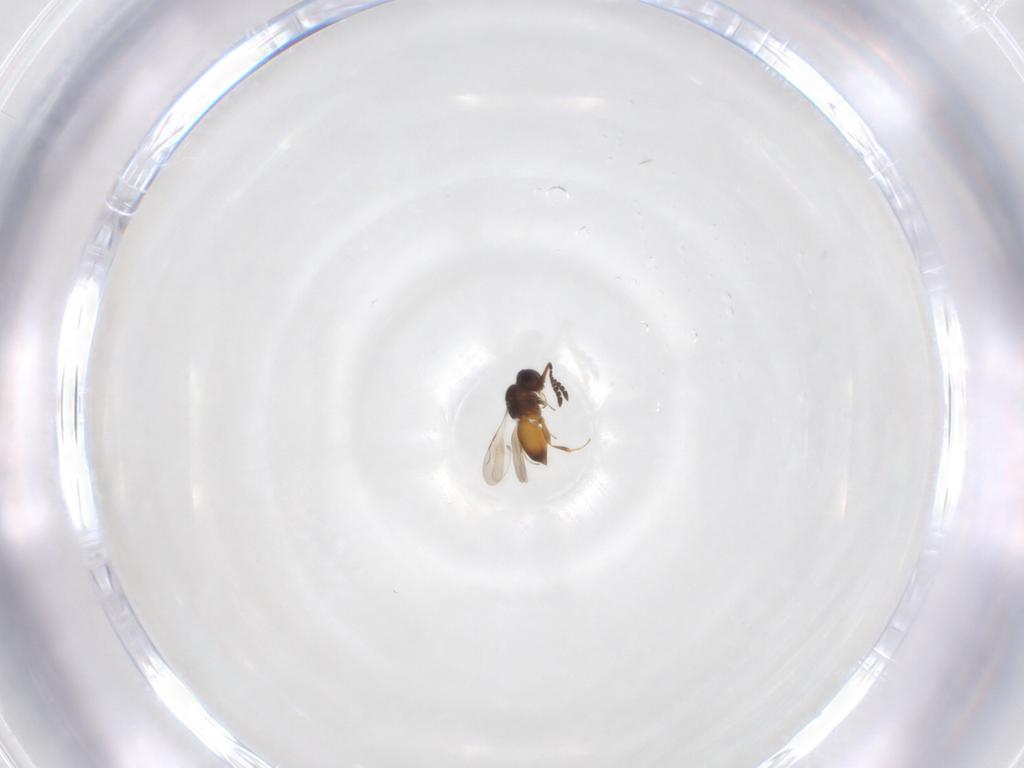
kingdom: Animalia
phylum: Arthropoda
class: Insecta
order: Hymenoptera
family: Ceraphronidae
